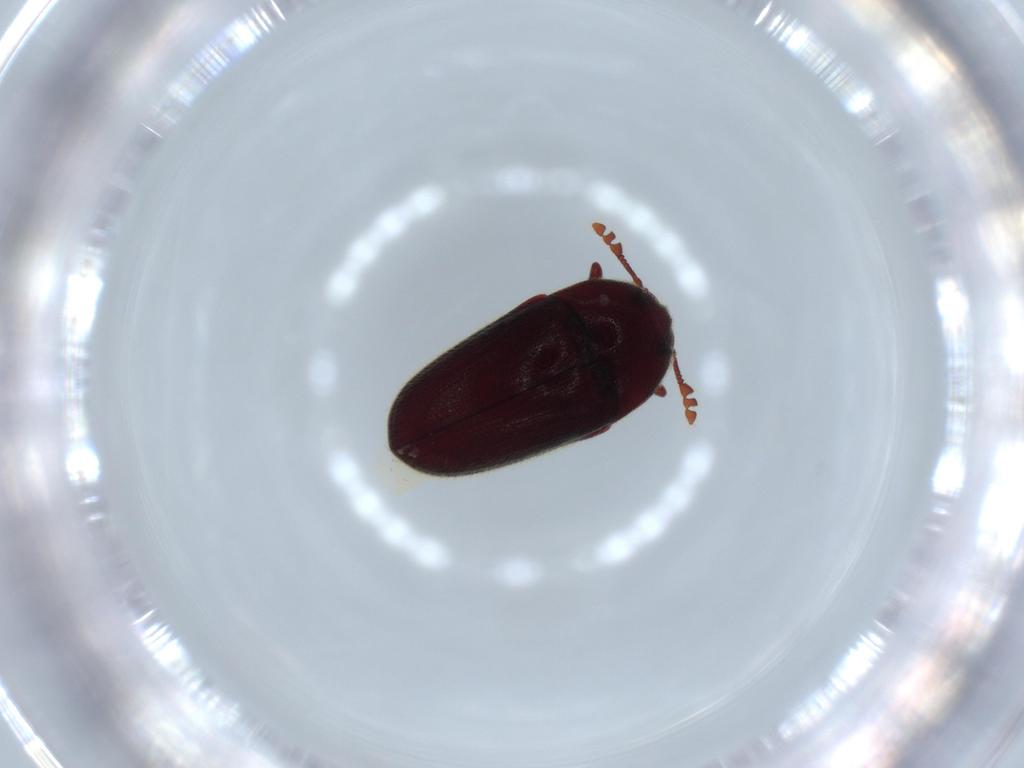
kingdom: Animalia
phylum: Arthropoda
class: Insecta
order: Coleoptera
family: Throscidae
